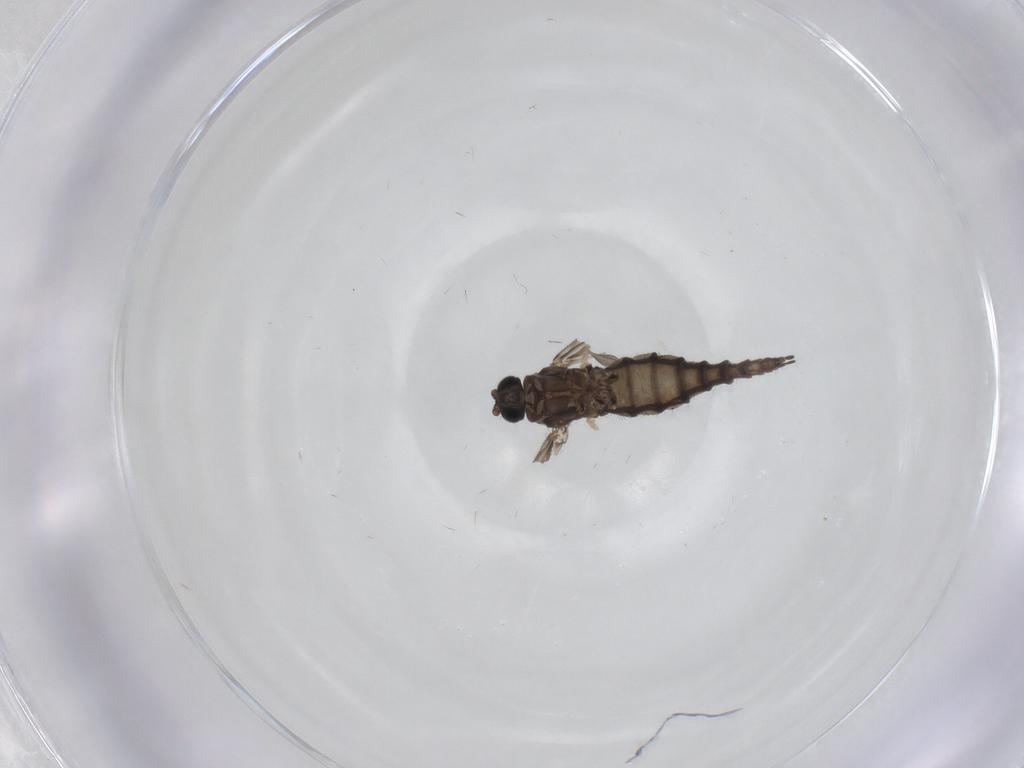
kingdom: Animalia
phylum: Arthropoda
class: Insecta
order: Diptera
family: Sciaridae
